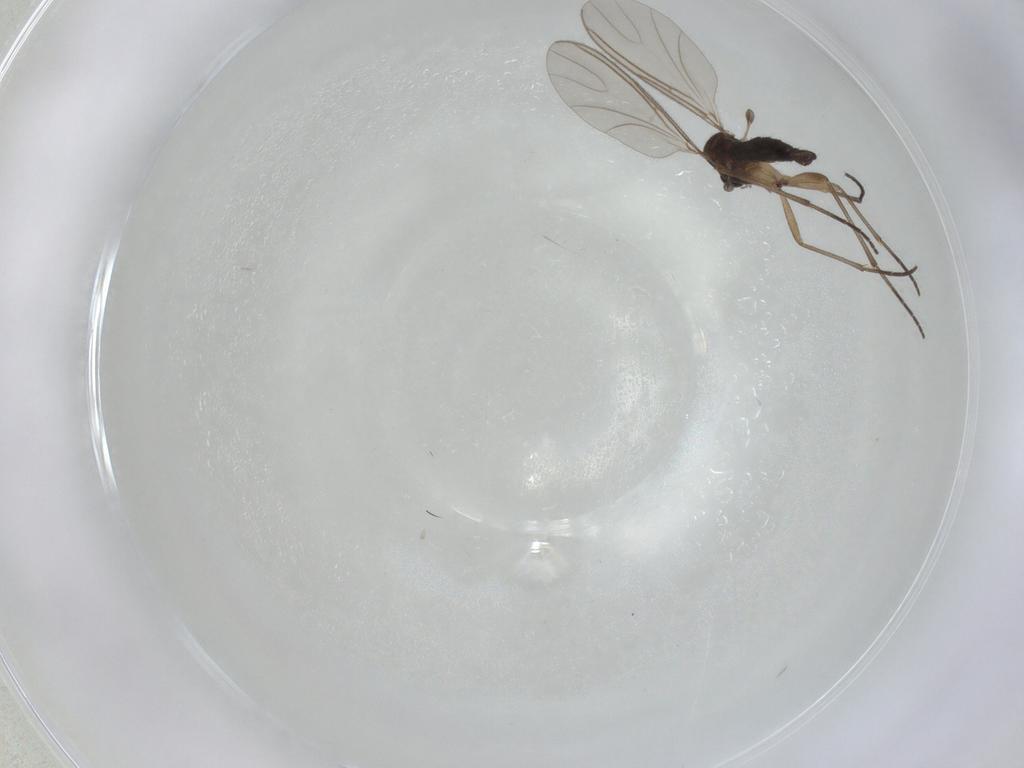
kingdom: Animalia
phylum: Arthropoda
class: Insecta
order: Diptera
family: Sciaridae
